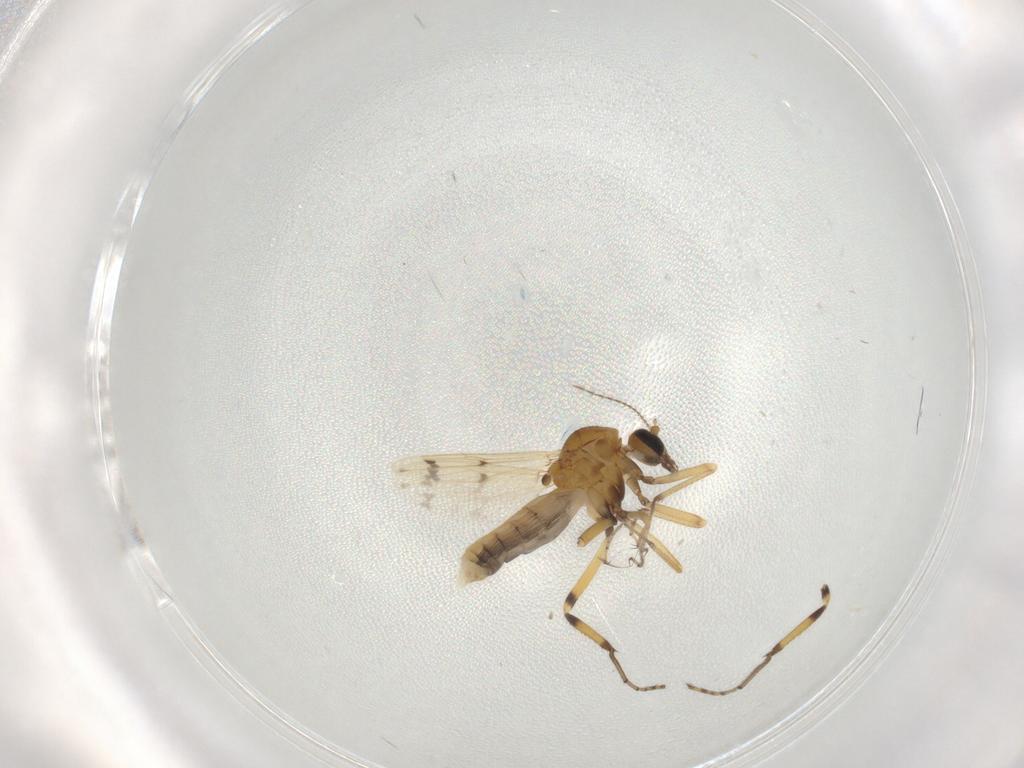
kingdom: Animalia
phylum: Arthropoda
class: Insecta
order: Diptera
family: Ceratopogonidae
